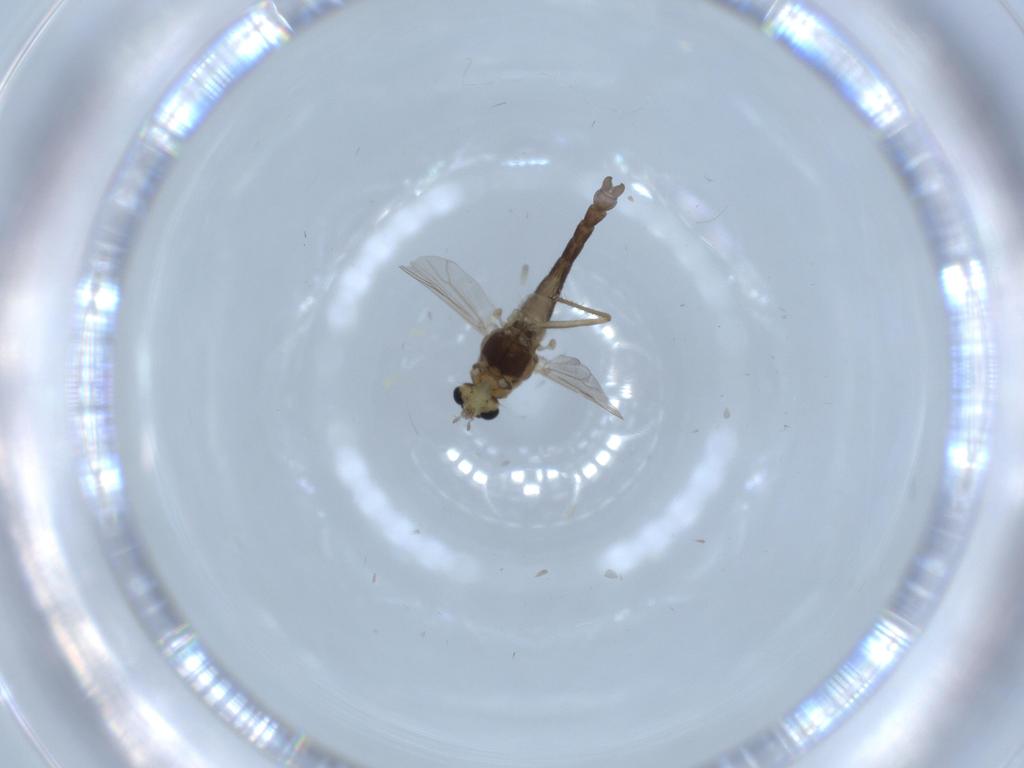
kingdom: Animalia
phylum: Arthropoda
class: Insecta
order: Diptera
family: Chironomidae
